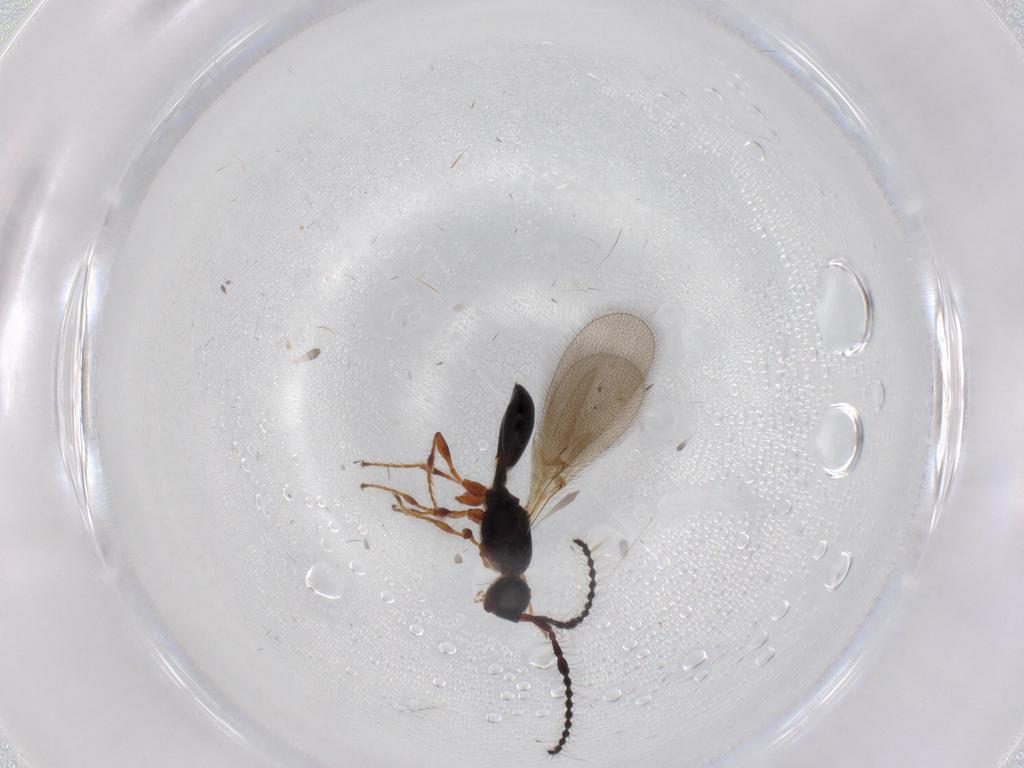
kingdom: Animalia
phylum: Arthropoda
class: Insecta
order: Hymenoptera
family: Diapriidae
